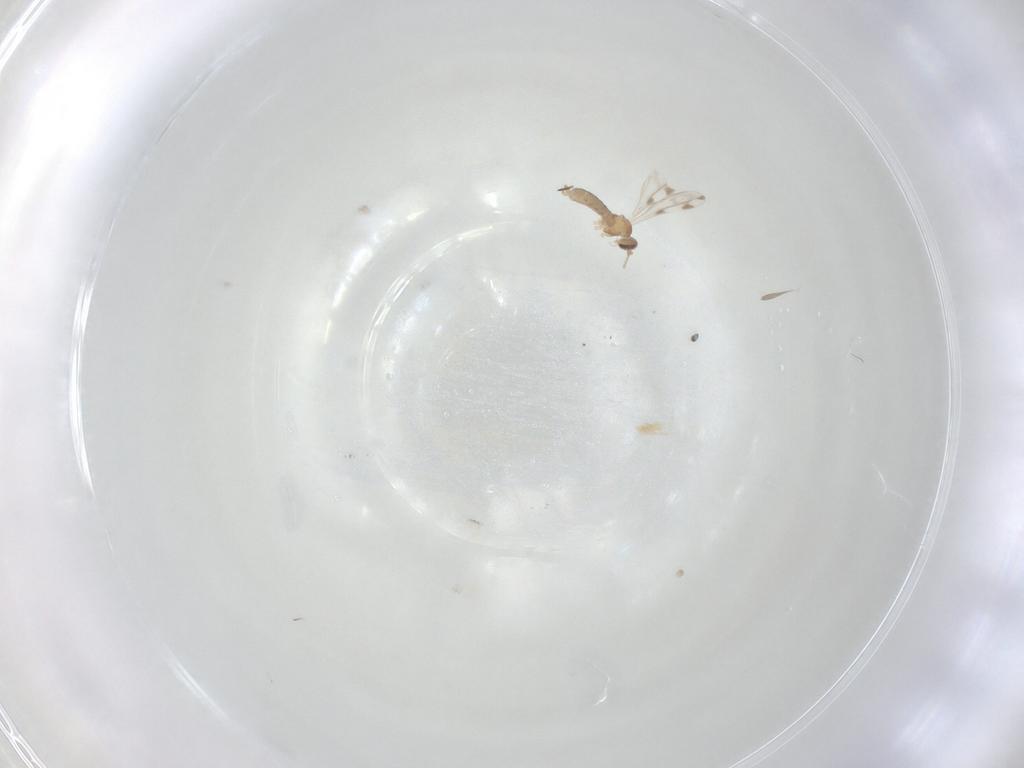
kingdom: Animalia
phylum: Arthropoda
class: Insecta
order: Diptera
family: Cecidomyiidae
